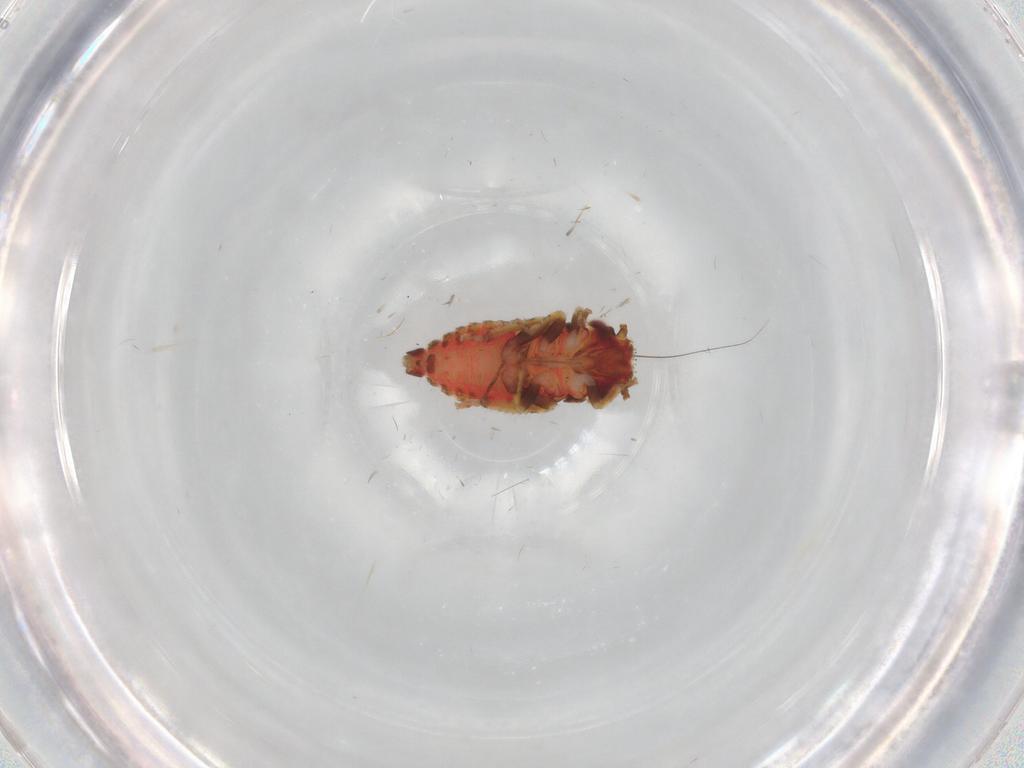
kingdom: Animalia
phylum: Arthropoda
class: Insecta
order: Hemiptera
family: Cicadellidae
